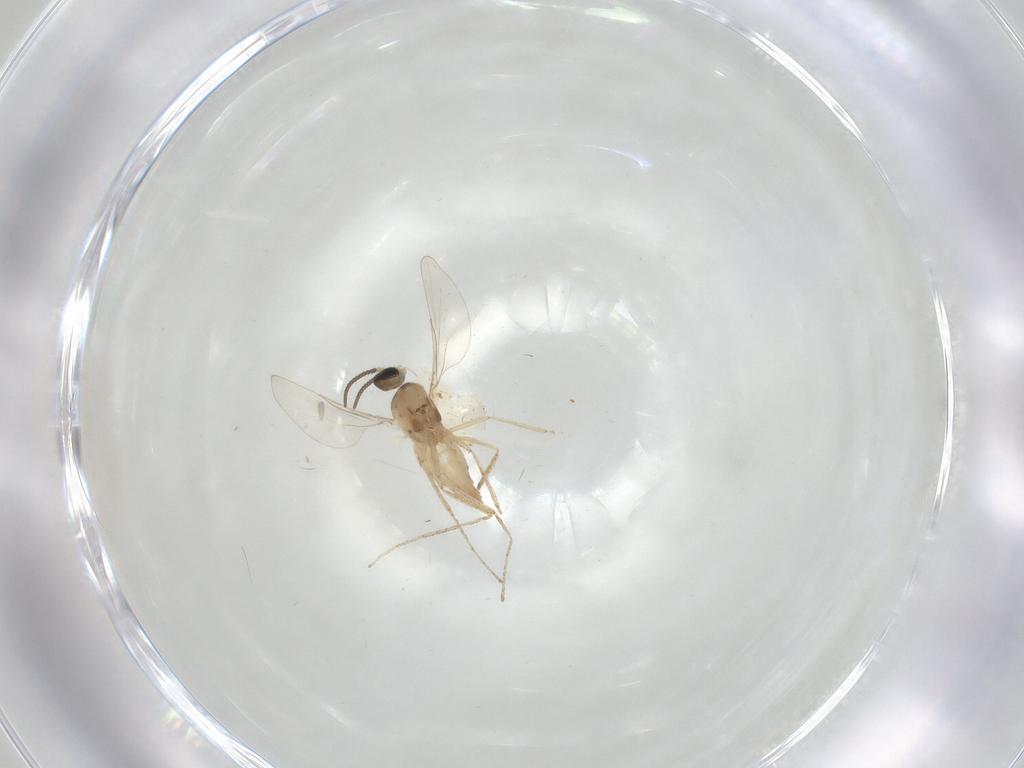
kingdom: Animalia
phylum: Arthropoda
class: Insecta
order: Diptera
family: Cecidomyiidae
